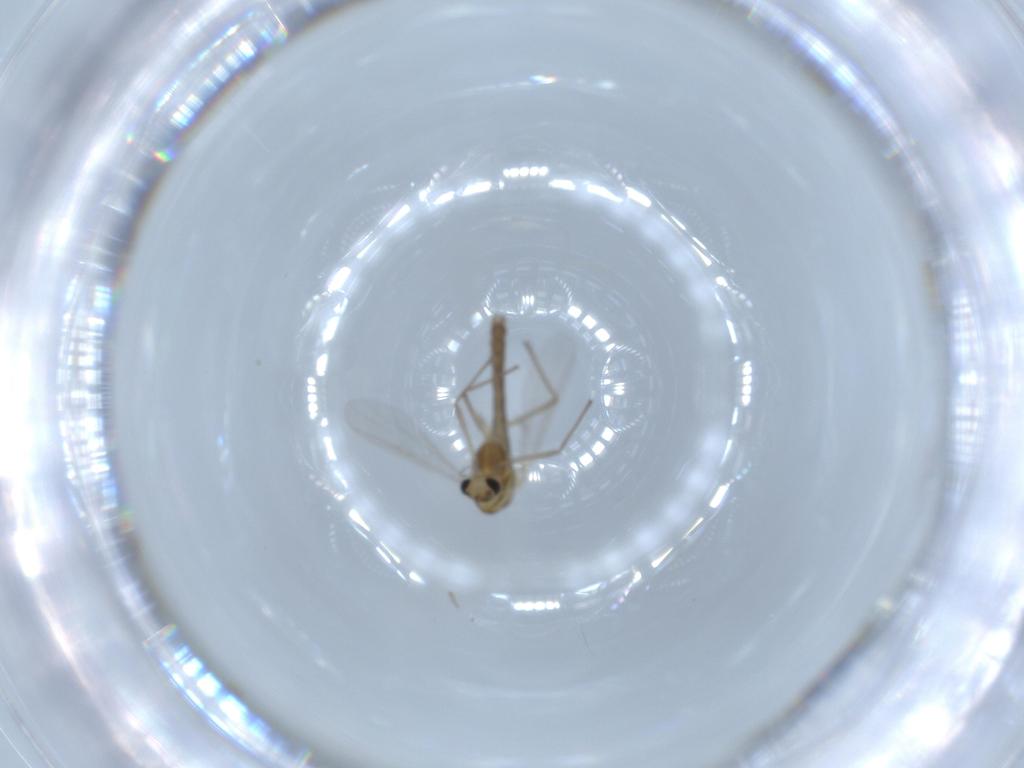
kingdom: Animalia
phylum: Arthropoda
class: Insecta
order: Diptera
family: Chironomidae
